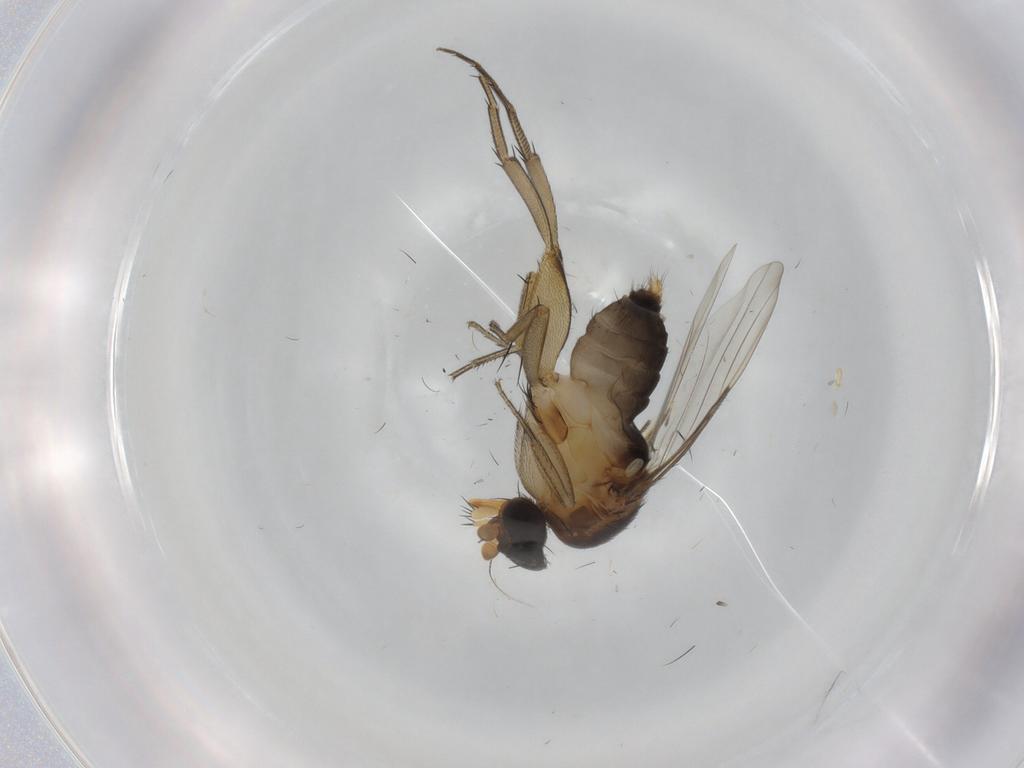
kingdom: Animalia
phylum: Arthropoda
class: Insecta
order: Diptera
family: Phoridae
